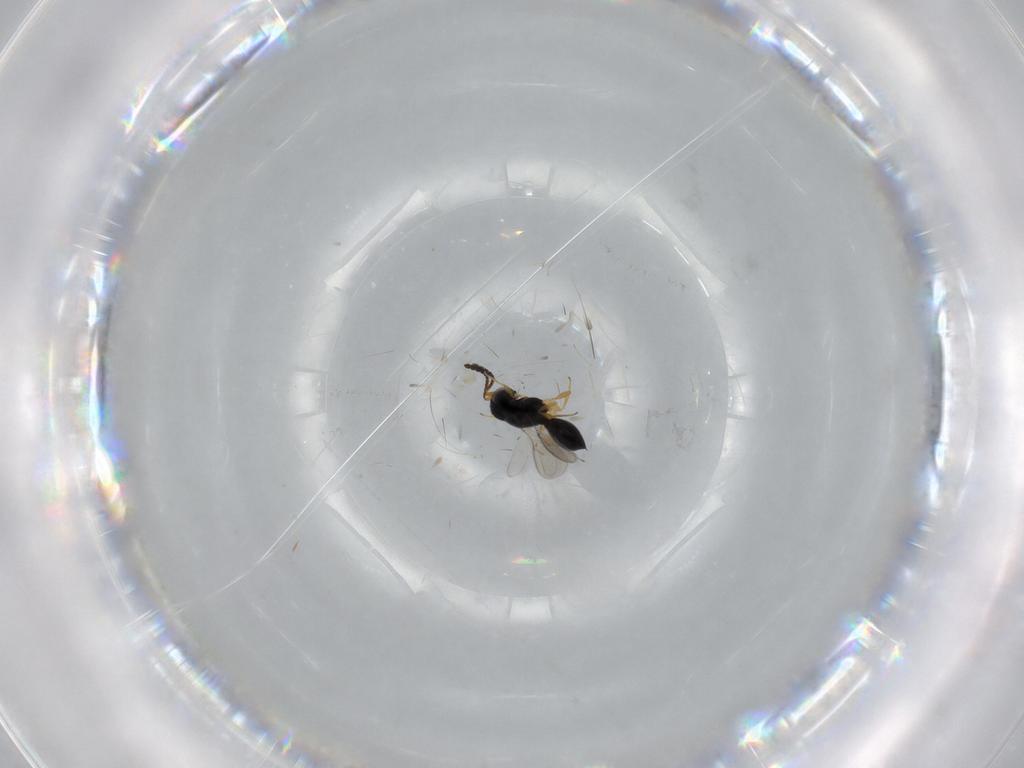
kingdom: Animalia
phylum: Arthropoda
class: Insecta
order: Hymenoptera
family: Scelionidae
